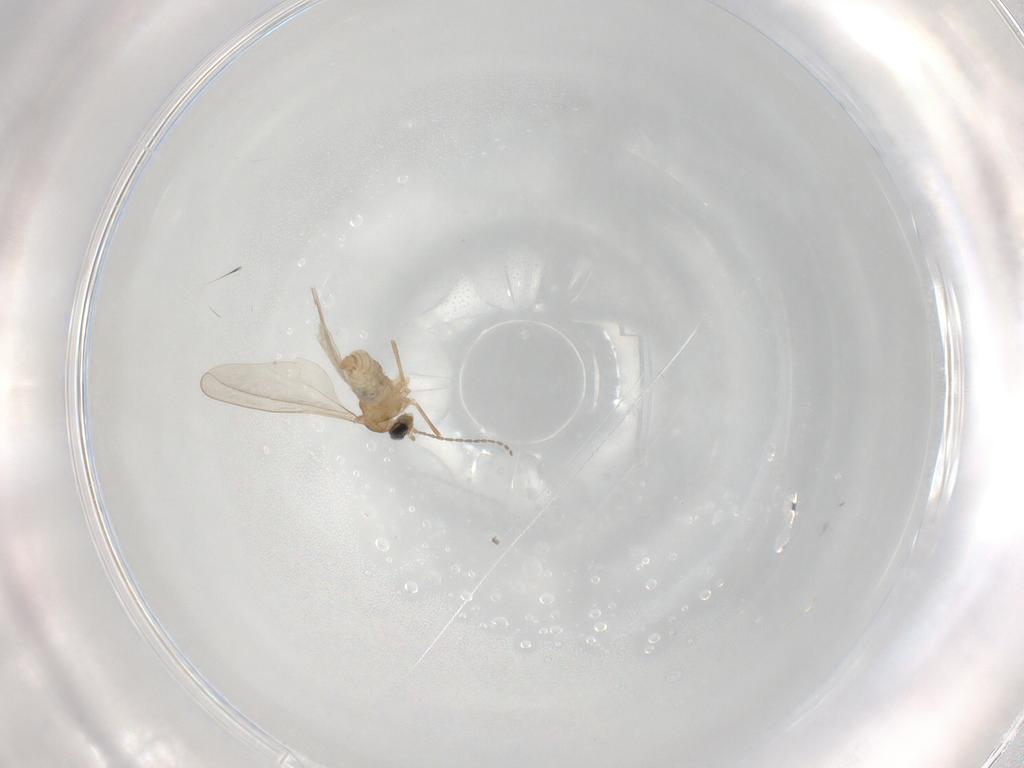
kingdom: Animalia
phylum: Arthropoda
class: Insecta
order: Diptera
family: Cecidomyiidae
